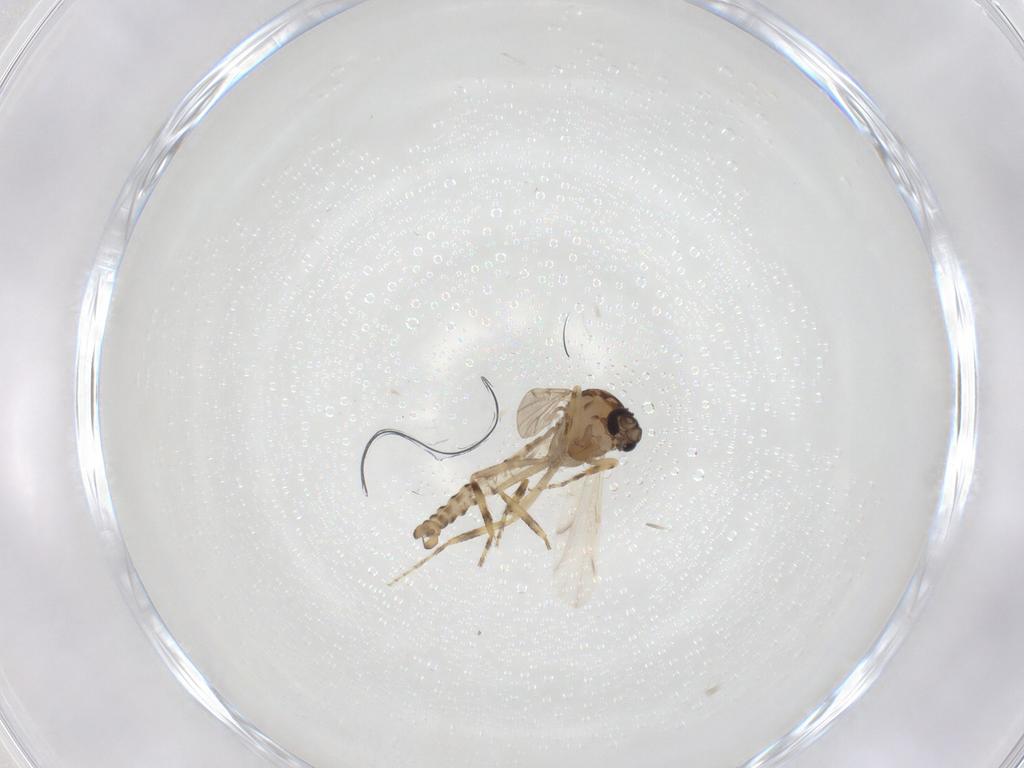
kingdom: Animalia
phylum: Arthropoda
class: Insecta
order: Diptera
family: Ceratopogonidae
